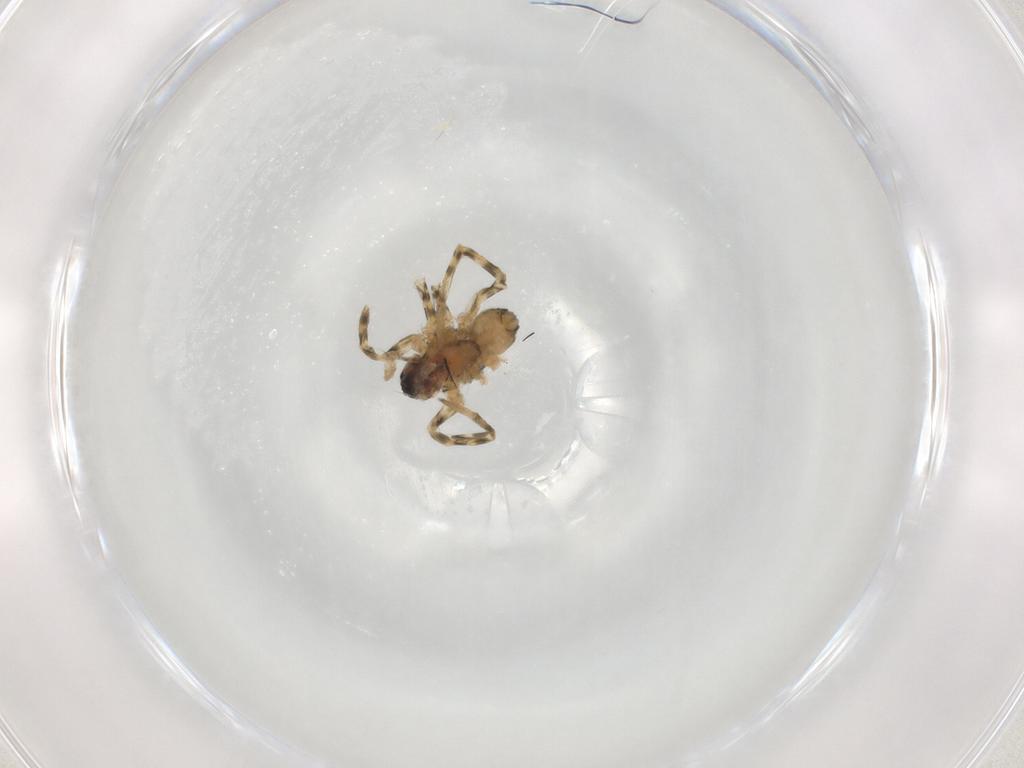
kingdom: Animalia
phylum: Arthropoda
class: Arachnida
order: Araneae
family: Lycosidae
